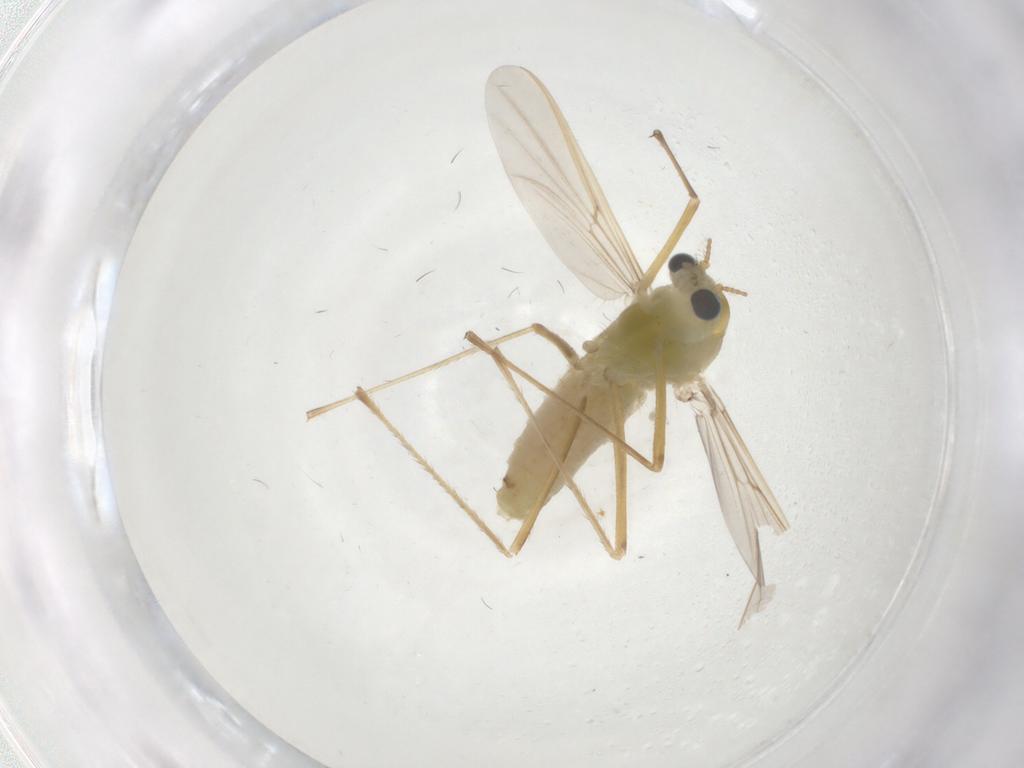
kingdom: Animalia
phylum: Arthropoda
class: Insecta
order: Diptera
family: Chironomidae
